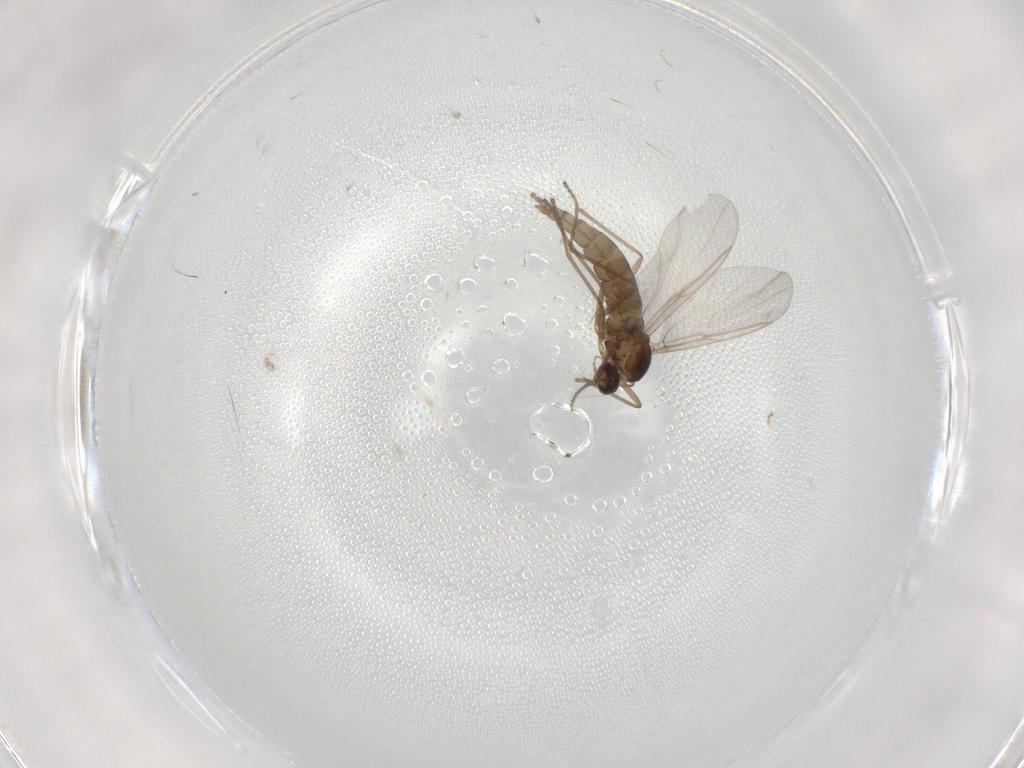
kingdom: Animalia
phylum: Arthropoda
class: Insecta
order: Diptera
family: Cecidomyiidae
